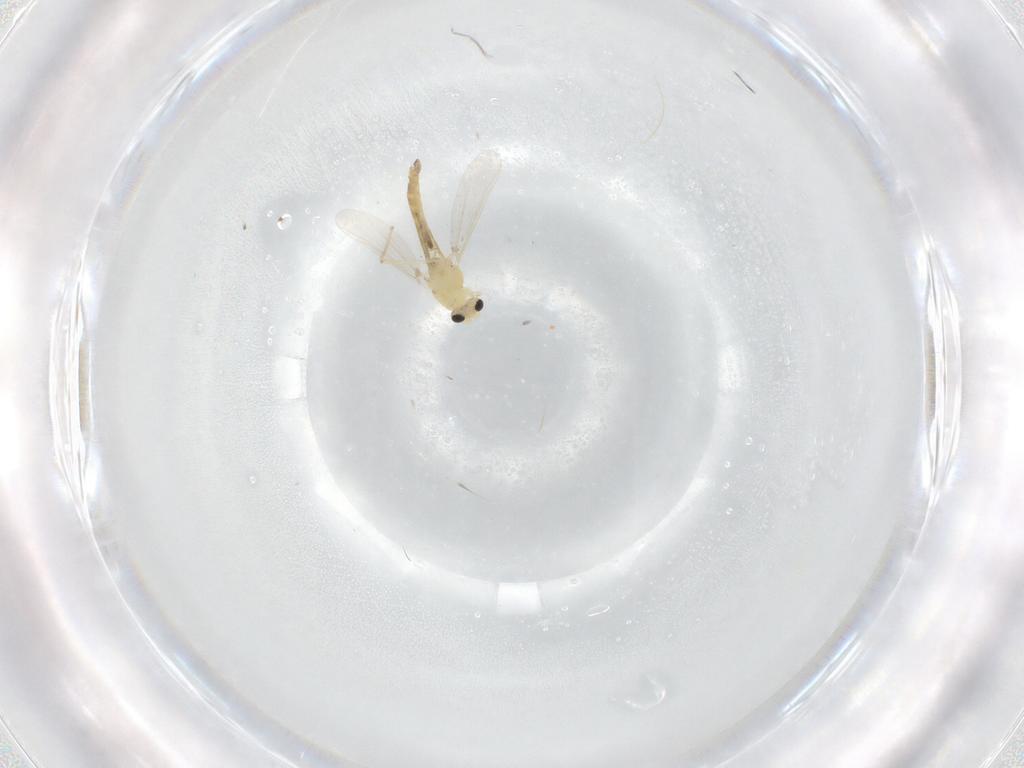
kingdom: Animalia
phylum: Arthropoda
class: Insecta
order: Diptera
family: Chironomidae
